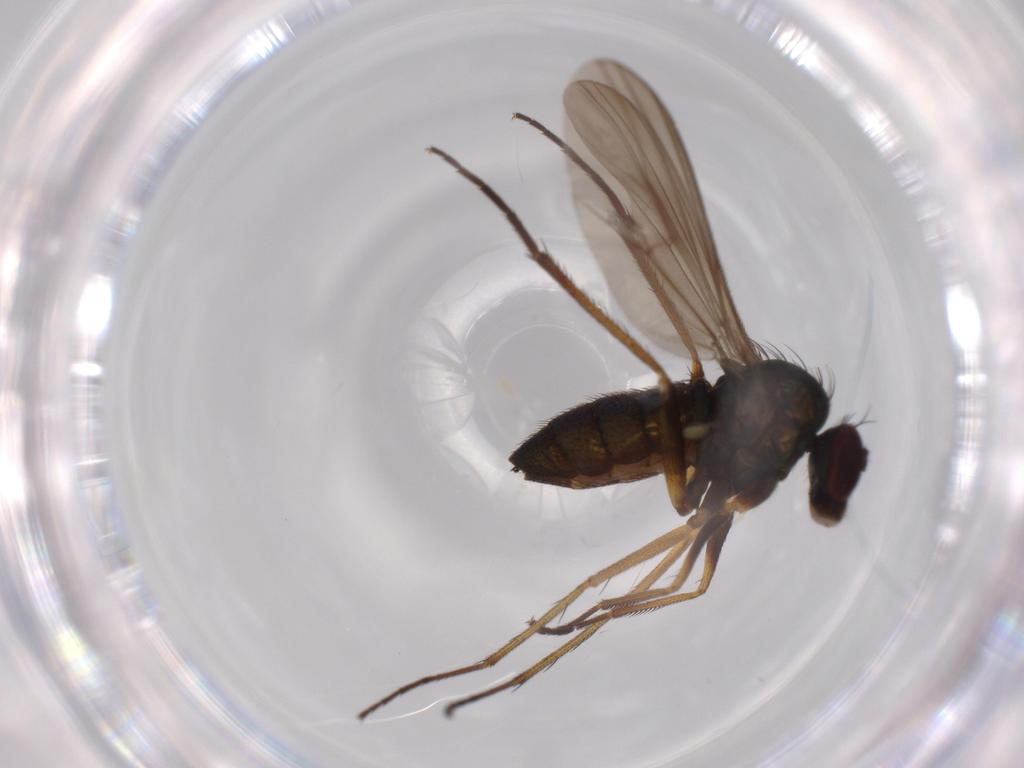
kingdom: Animalia
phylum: Arthropoda
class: Insecta
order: Diptera
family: Dolichopodidae
